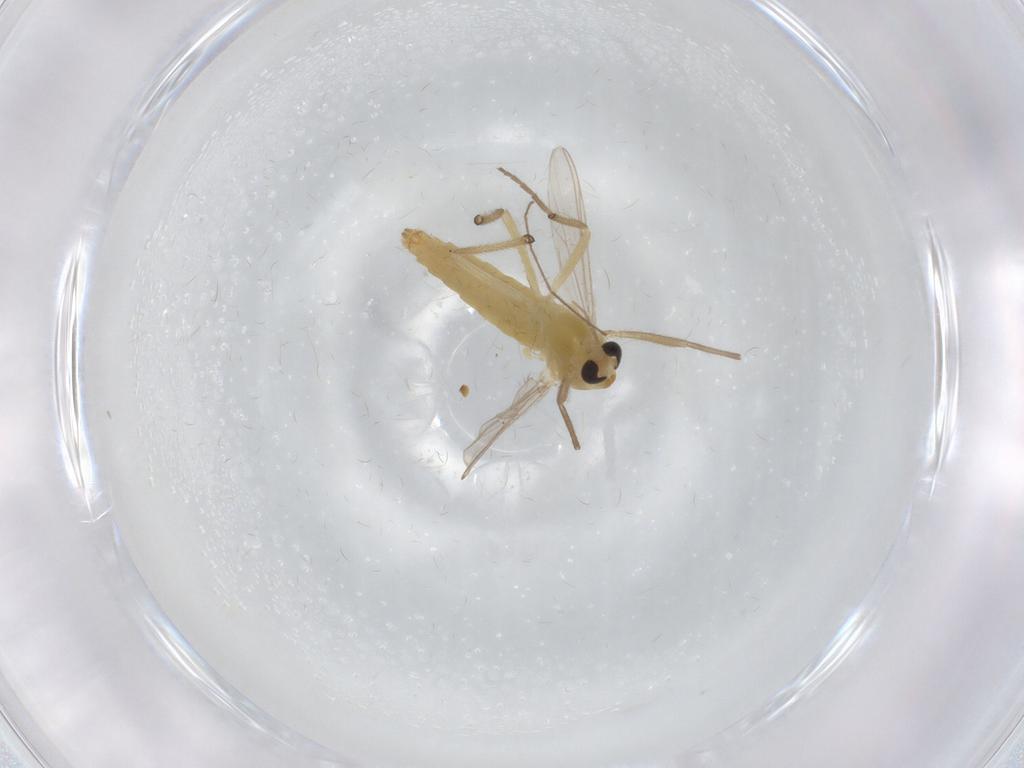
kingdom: Animalia
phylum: Arthropoda
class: Insecta
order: Diptera
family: Chironomidae
